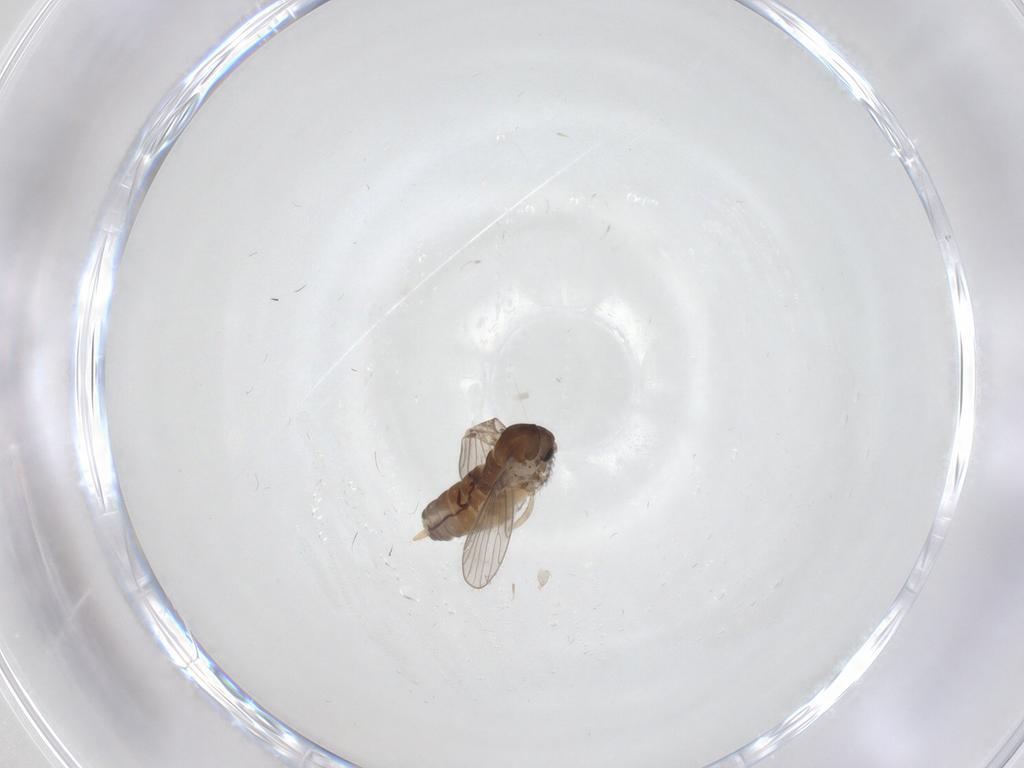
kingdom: Animalia
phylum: Arthropoda
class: Insecta
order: Diptera
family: Psychodidae
